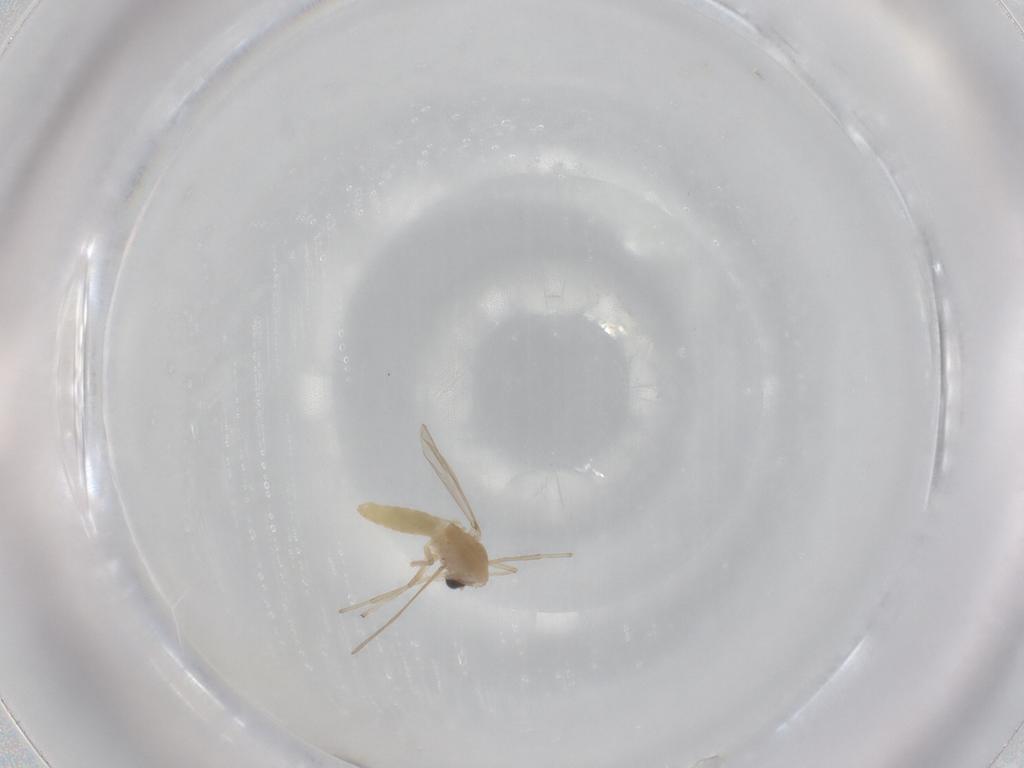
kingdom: Animalia
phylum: Arthropoda
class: Insecta
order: Diptera
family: Chironomidae
